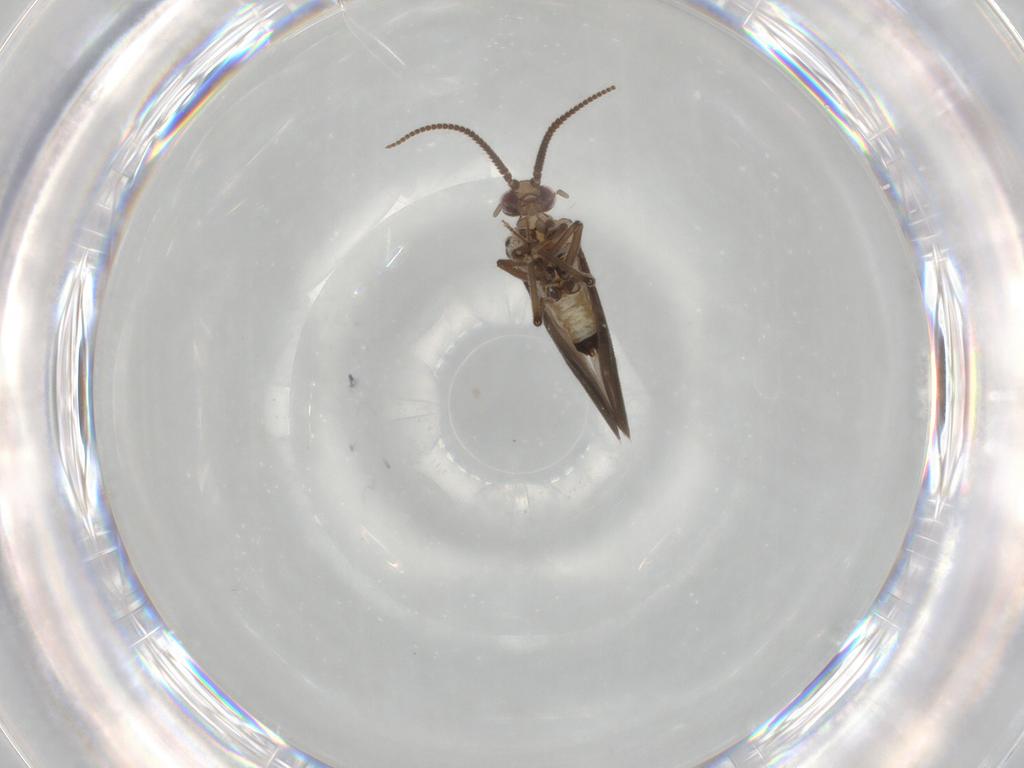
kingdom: Animalia
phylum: Arthropoda
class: Insecta
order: Neuroptera
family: Coniopterygidae
